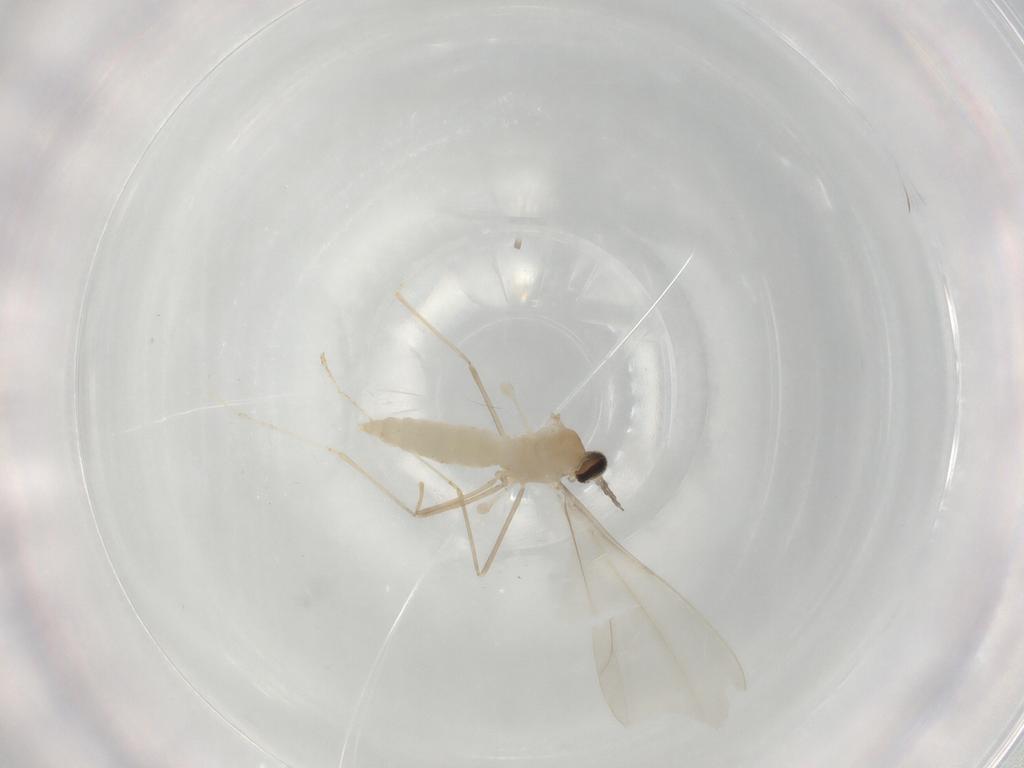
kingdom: Animalia
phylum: Arthropoda
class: Insecta
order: Diptera
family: Cecidomyiidae
